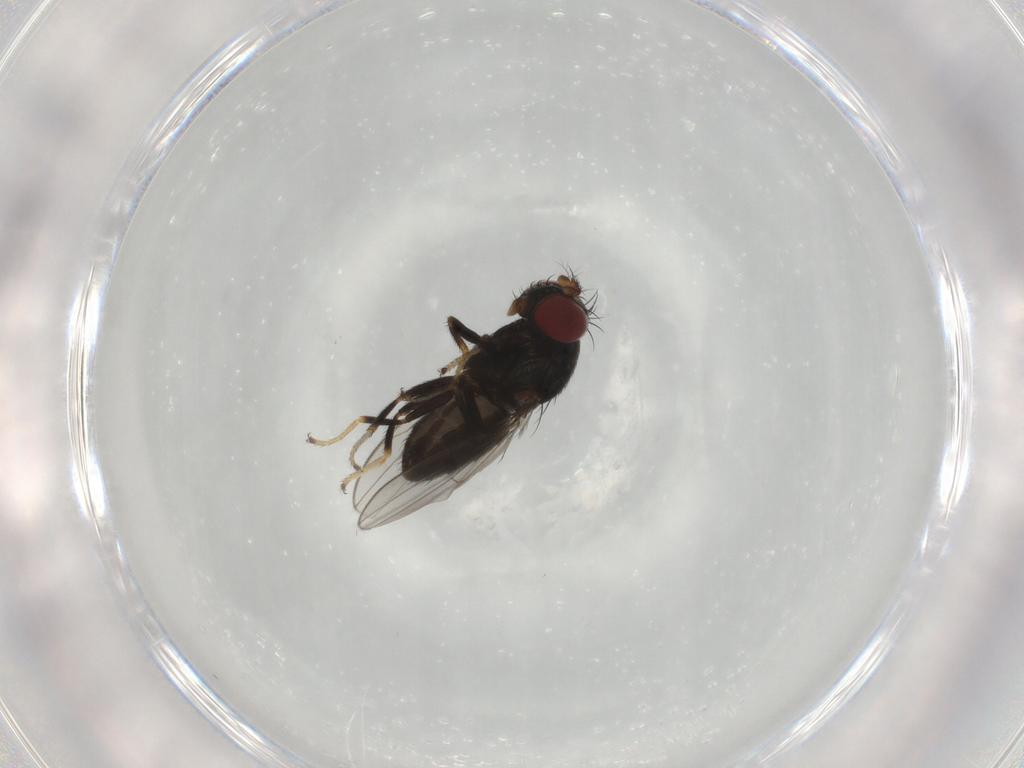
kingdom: Animalia
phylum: Arthropoda
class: Insecta
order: Diptera
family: Ephydridae
